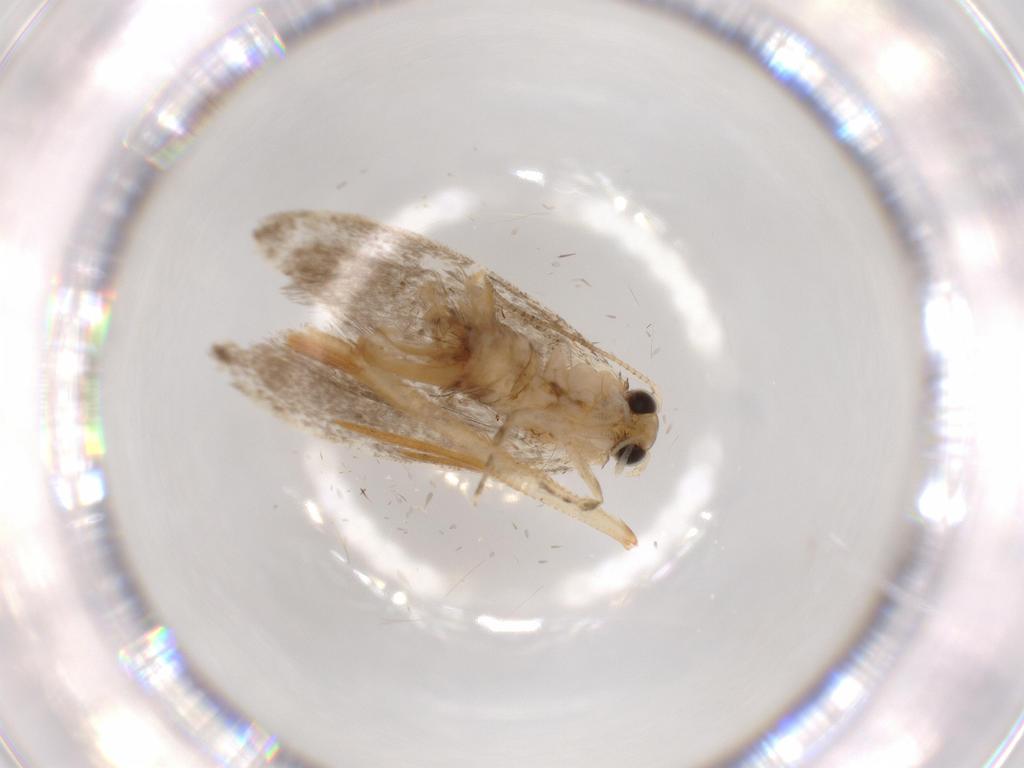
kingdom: Animalia
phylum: Arthropoda
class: Insecta
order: Lepidoptera
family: Tineidae
